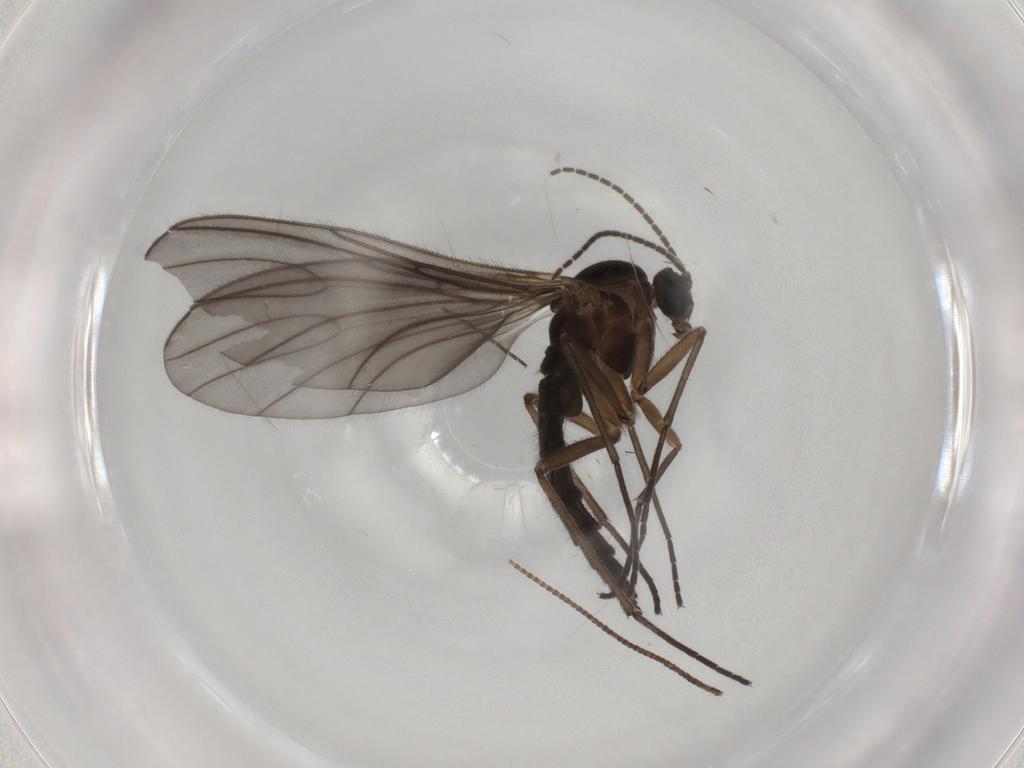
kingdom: Animalia
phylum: Arthropoda
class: Insecta
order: Diptera
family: Sciaridae
